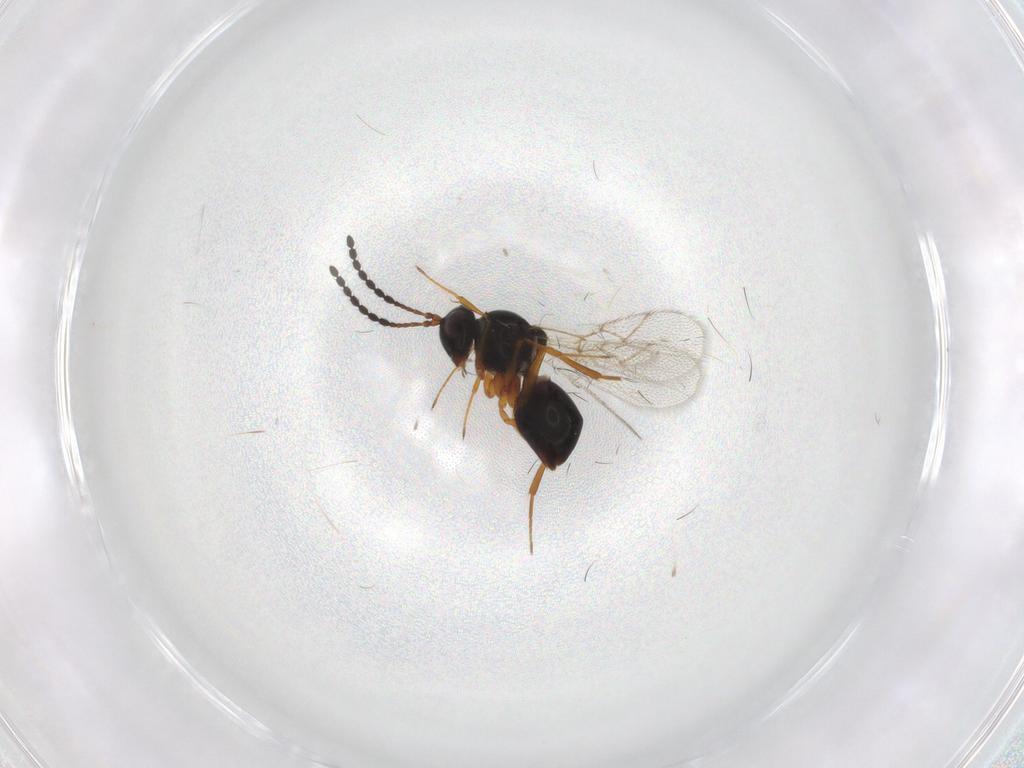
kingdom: Animalia
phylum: Arthropoda
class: Insecta
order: Hymenoptera
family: Figitidae
